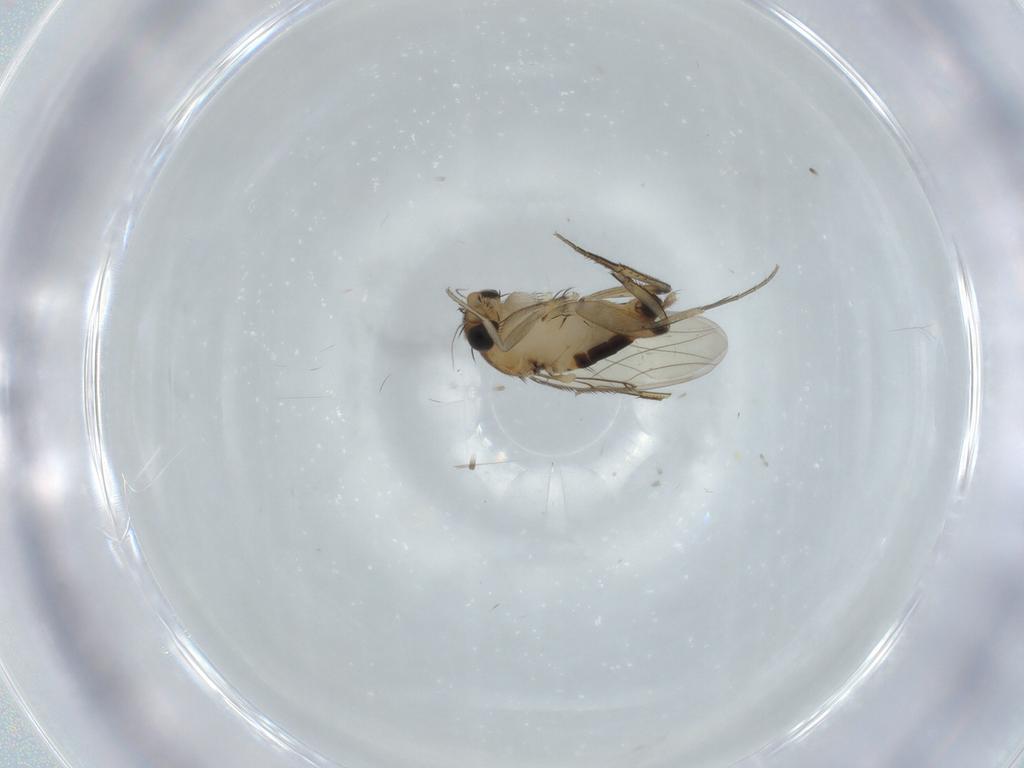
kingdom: Animalia
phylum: Arthropoda
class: Insecta
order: Diptera
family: Phoridae
